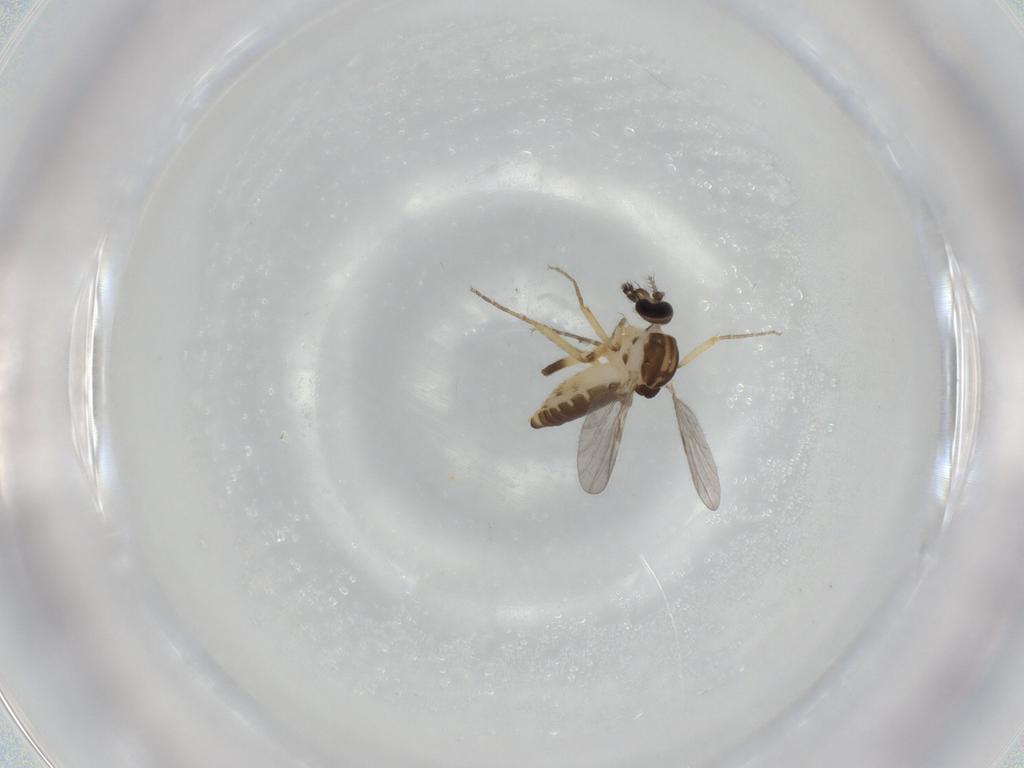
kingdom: Animalia
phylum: Arthropoda
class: Insecta
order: Diptera
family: Ceratopogonidae
